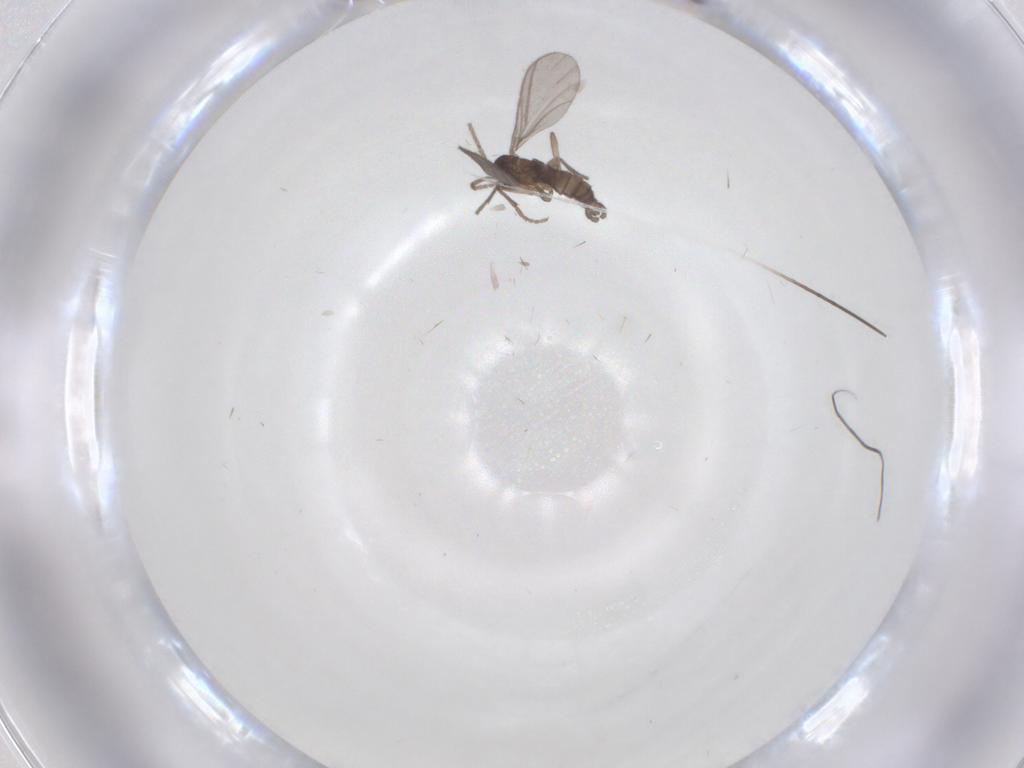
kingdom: Animalia
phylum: Arthropoda
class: Insecta
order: Diptera
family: Sciaridae
